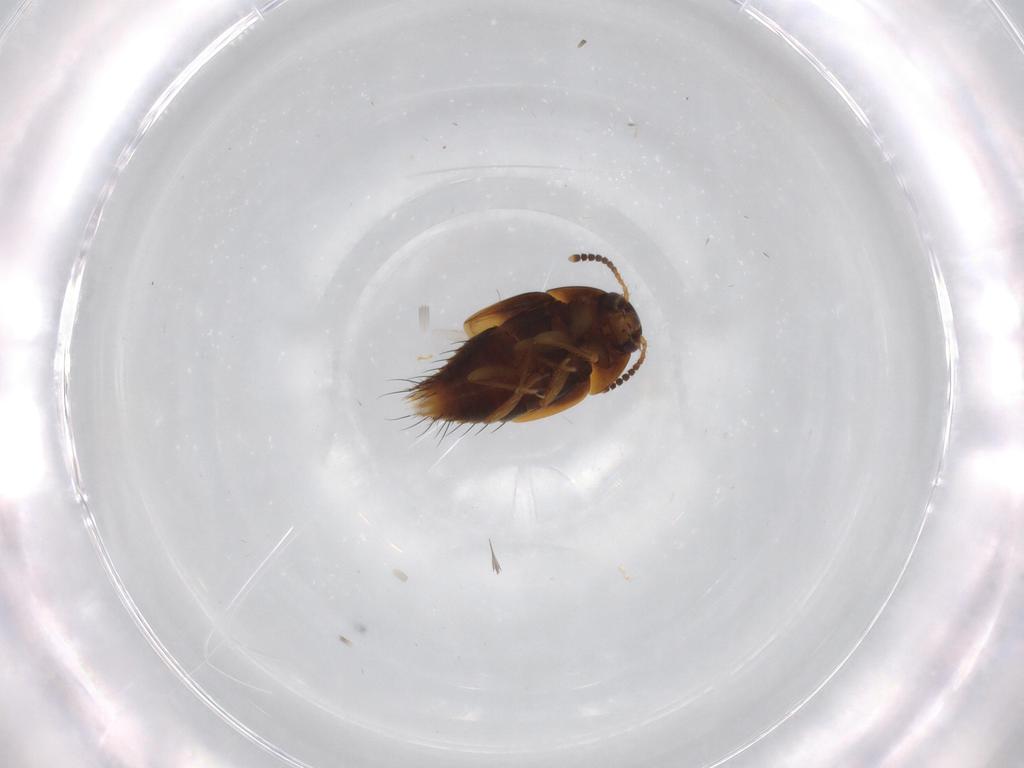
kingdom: Animalia
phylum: Arthropoda
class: Insecta
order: Coleoptera
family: Staphylinidae
